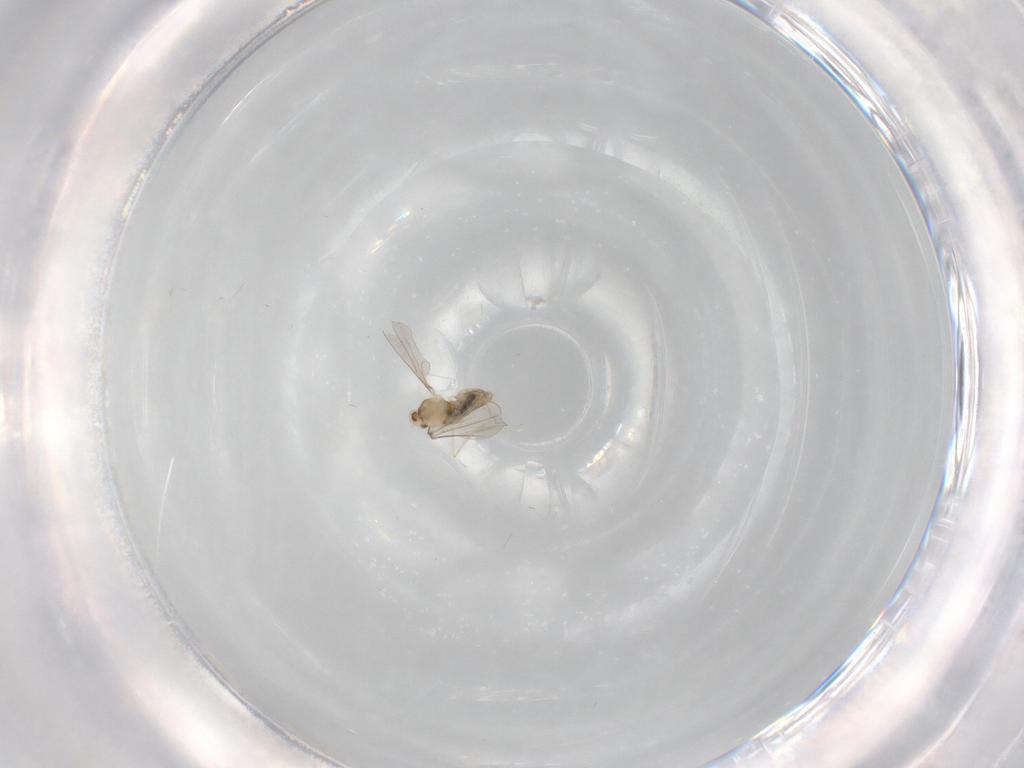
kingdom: Animalia
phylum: Arthropoda
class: Insecta
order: Diptera
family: Cecidomyiidae
